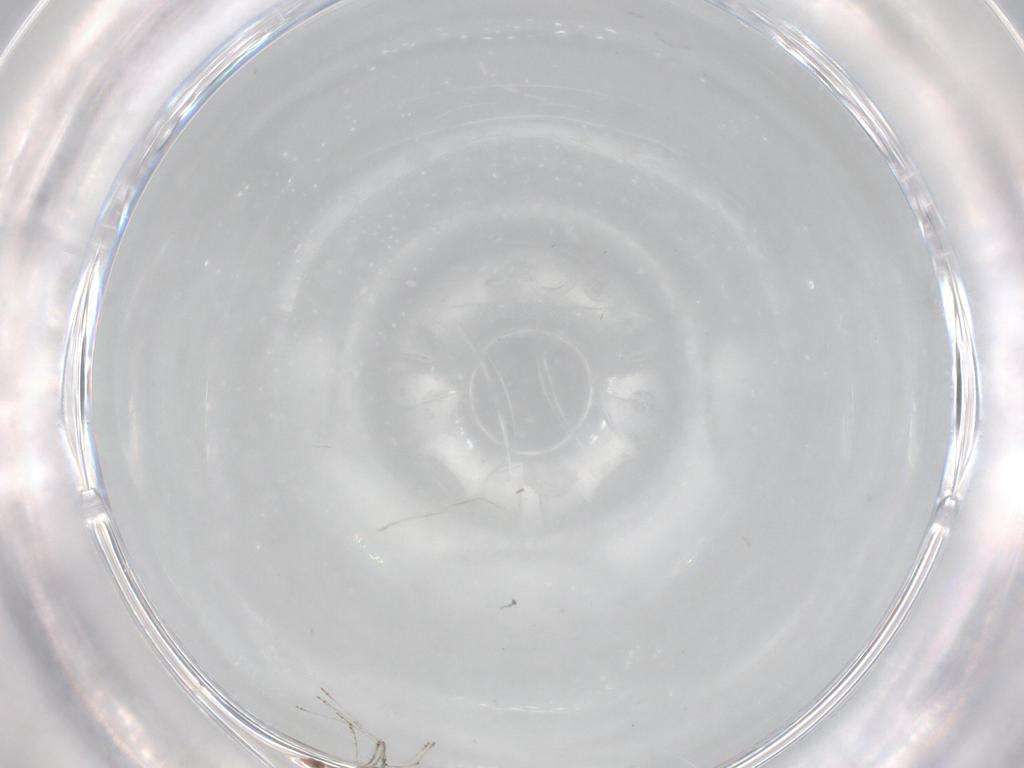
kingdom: Animalia
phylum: Arthropoda
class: Insecta
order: Diptera
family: Cecidomyiidae
